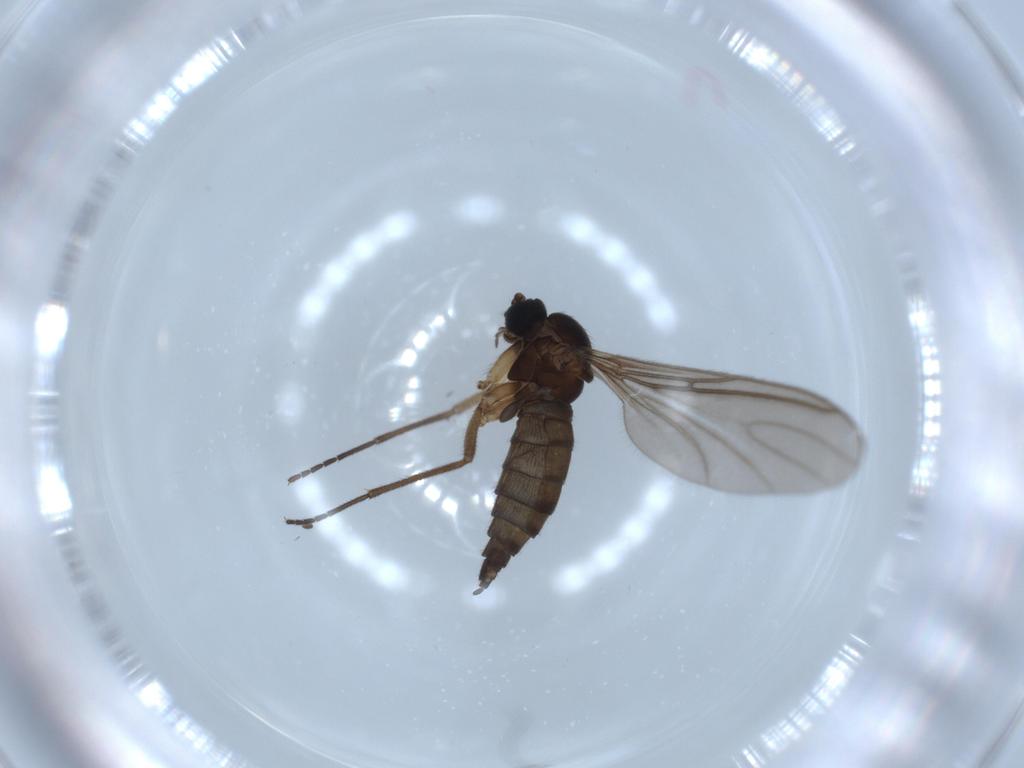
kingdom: Animalia
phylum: Arthropoda
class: Insecta
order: Diptera
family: Sciaridae
